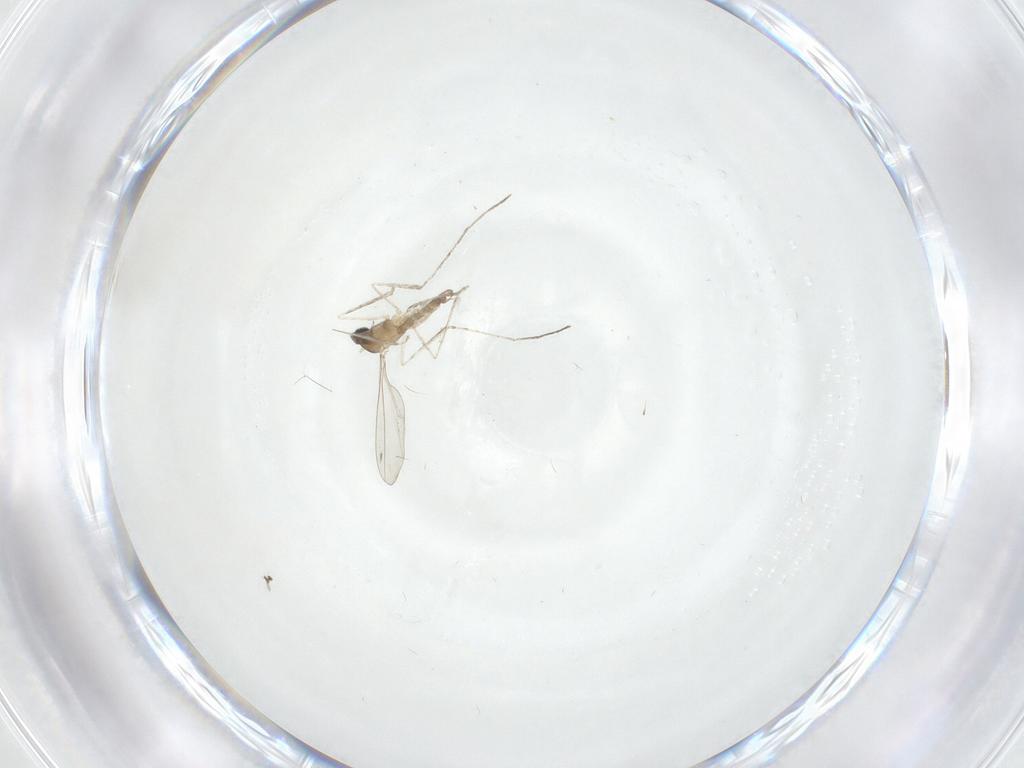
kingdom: Animalia
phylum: Arthropoda
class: Insecta
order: Diptera
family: Cecidomyiidae
